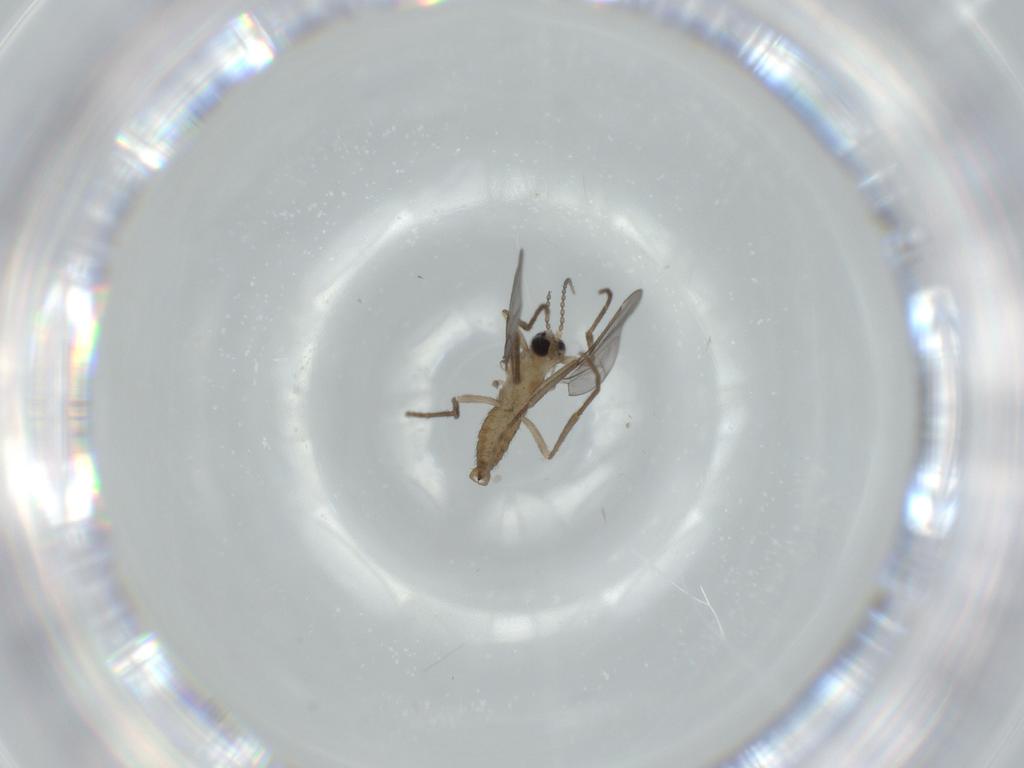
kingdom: Animalia
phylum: Arthropoda
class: Insecta
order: Diptera
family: Cecidomyiidae
